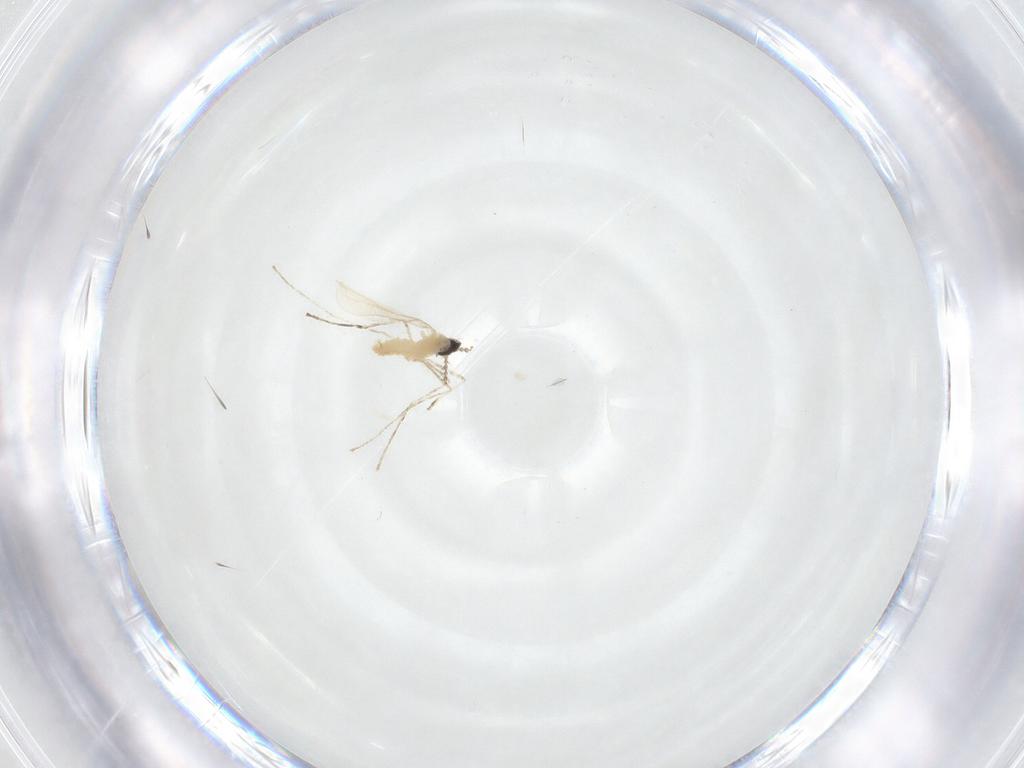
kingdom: Animalia
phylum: Arthropoda
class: Insecta
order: Diptera
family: Cecidomyiidae
